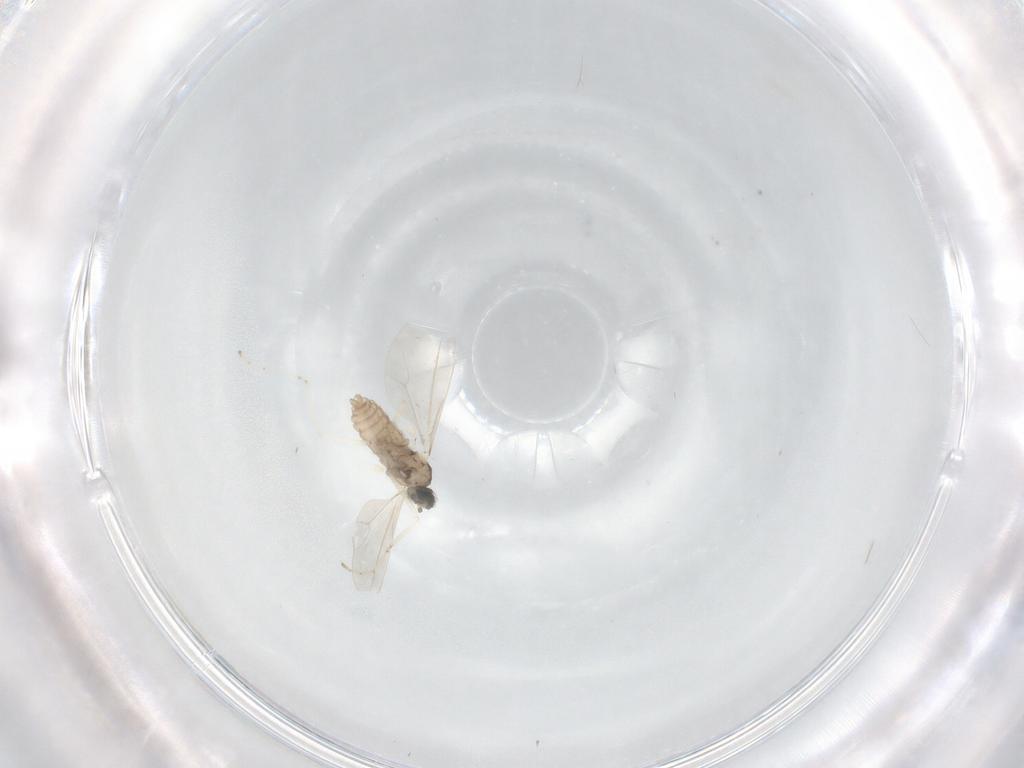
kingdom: Animalia
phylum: Arthropoda
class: Insecta
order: Diptera
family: Cecidomyiidae
